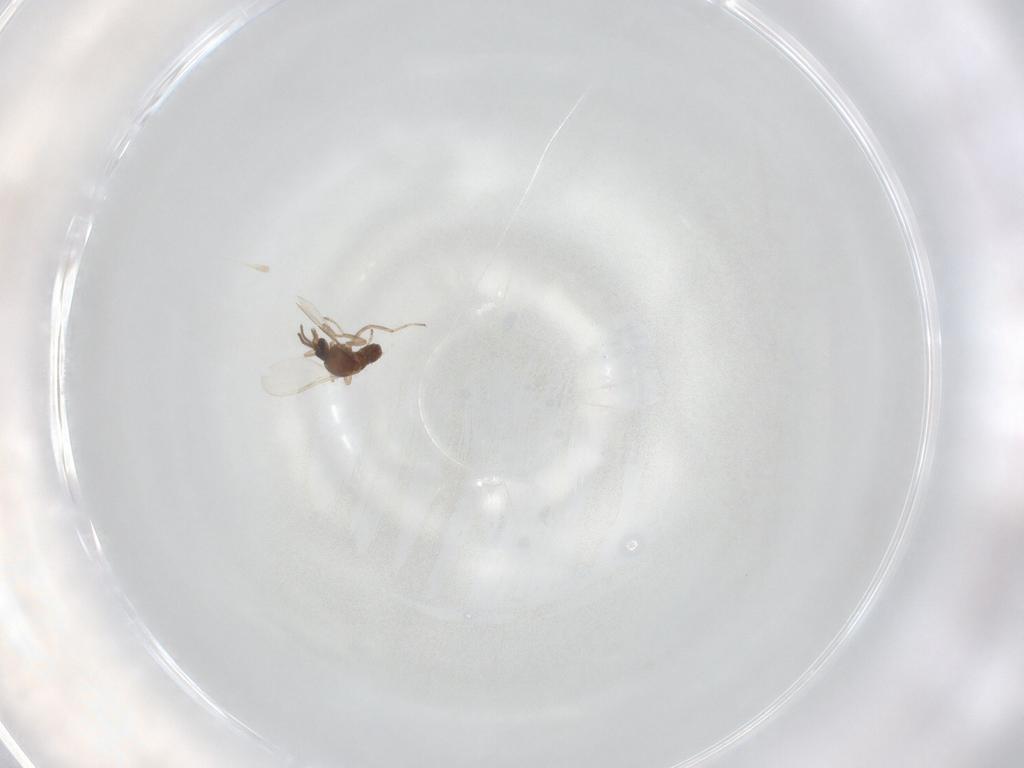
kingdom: Animalia
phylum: Arthropoda
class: Insecta
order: Diptera
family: Ceratopogonidae
